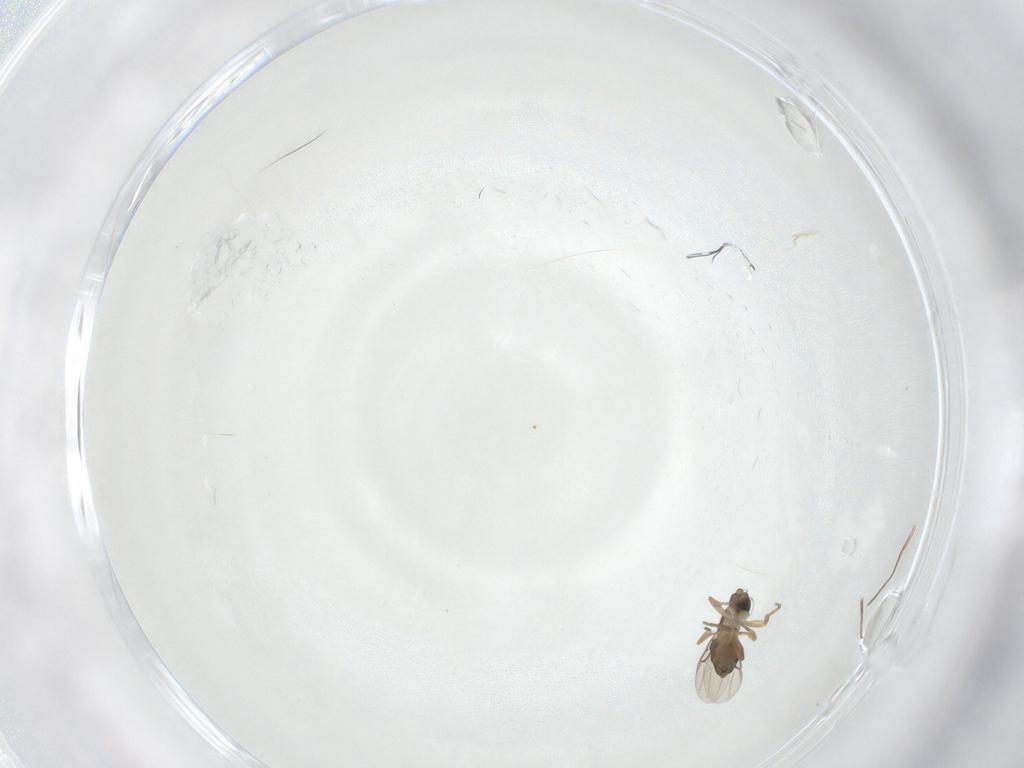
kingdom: Animalia
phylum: Arthropoda
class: Insecta
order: Diptera
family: Phoridae
